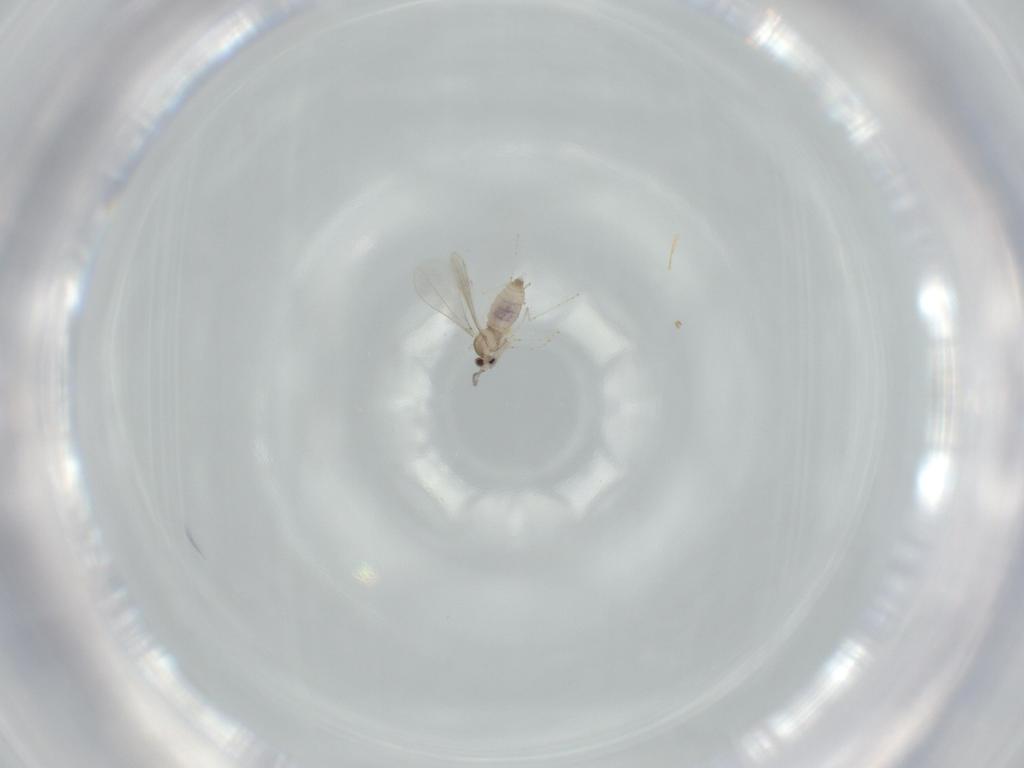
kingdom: Animalia
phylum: Arthropoda
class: Insecta
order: Diptera
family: Cecidomyiidae
